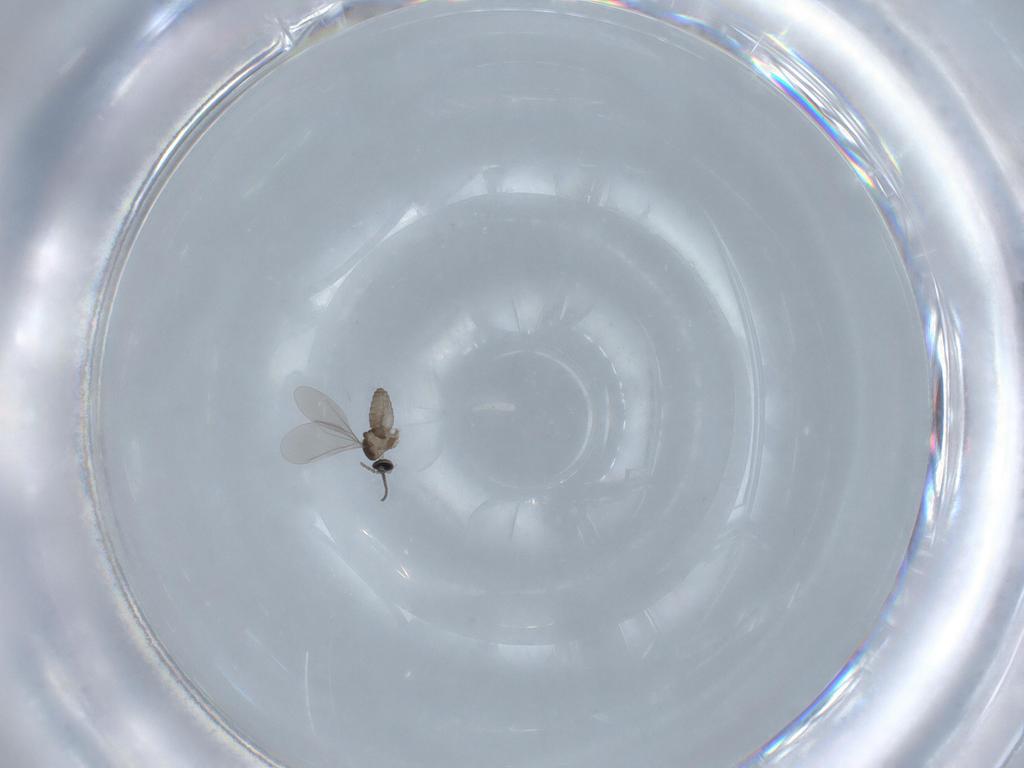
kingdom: Animalia
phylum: Arthropoda
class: Insecta
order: Diptera
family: Cecidomyiidae
